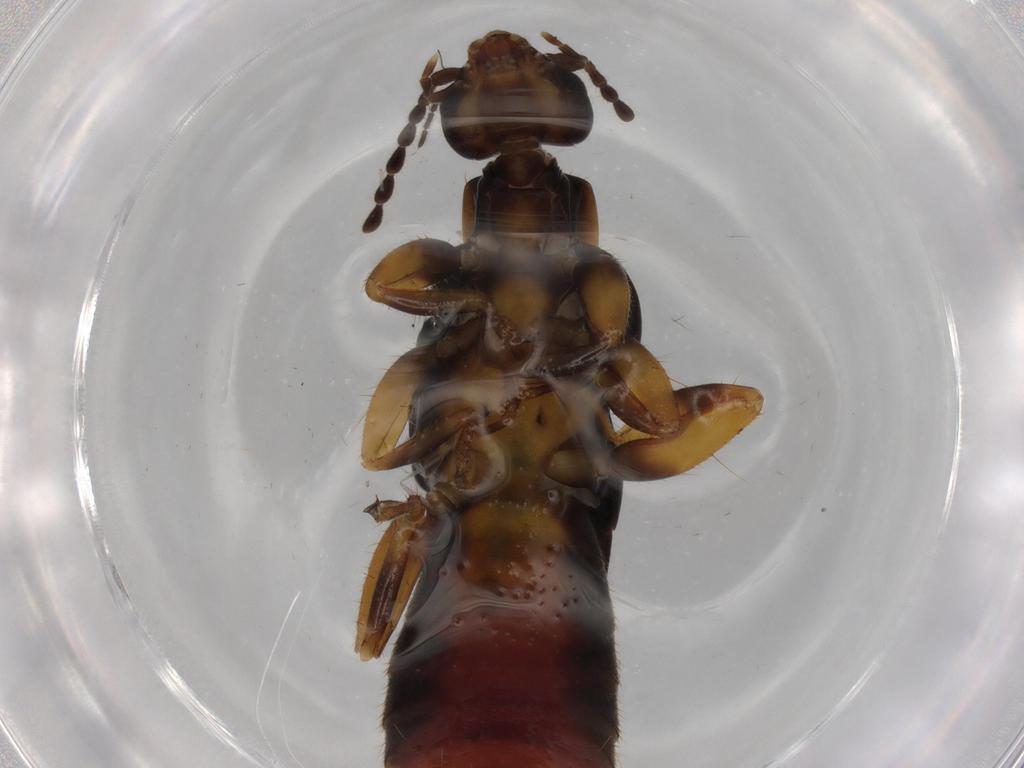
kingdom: Animalia
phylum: Arthropoda
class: Insecta
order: Dermaptera
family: Forficulidae
